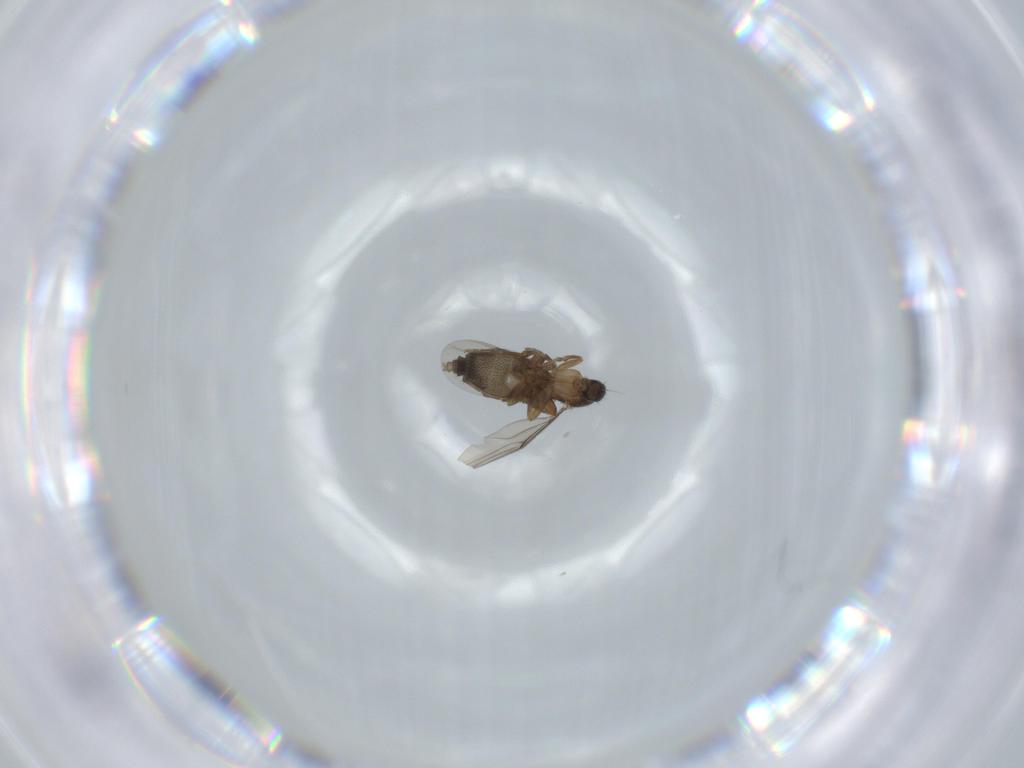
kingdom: Animalia
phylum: Arthropoda
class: Insecta
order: Diptera
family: Phoridae
